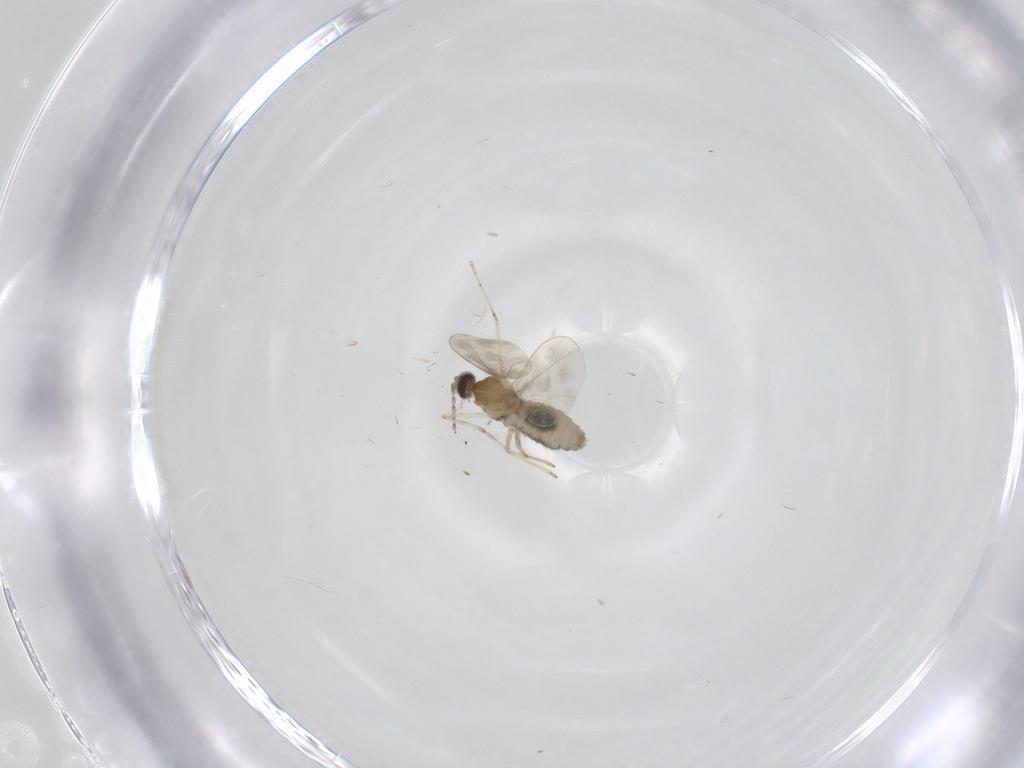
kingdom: Animalia
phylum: Arthropoda
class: Insecta
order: Diptera
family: Cecidomyiidae
